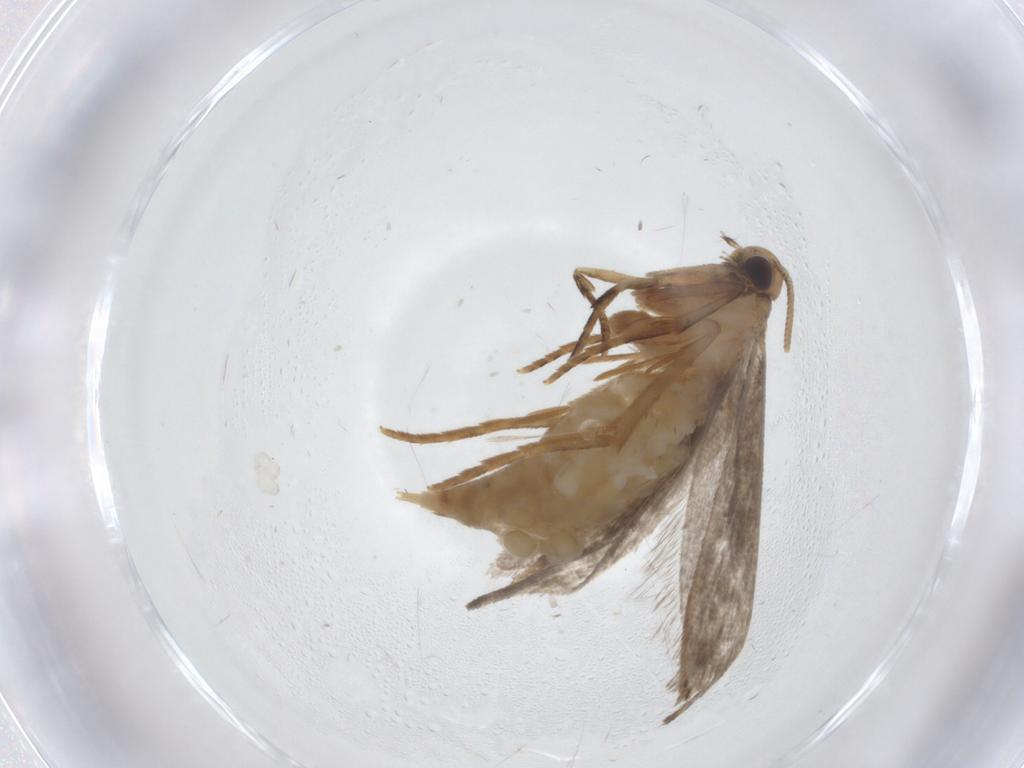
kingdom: Animalia
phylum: Arthropoda
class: Insecta
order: Lepidoptera
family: Tineidae
